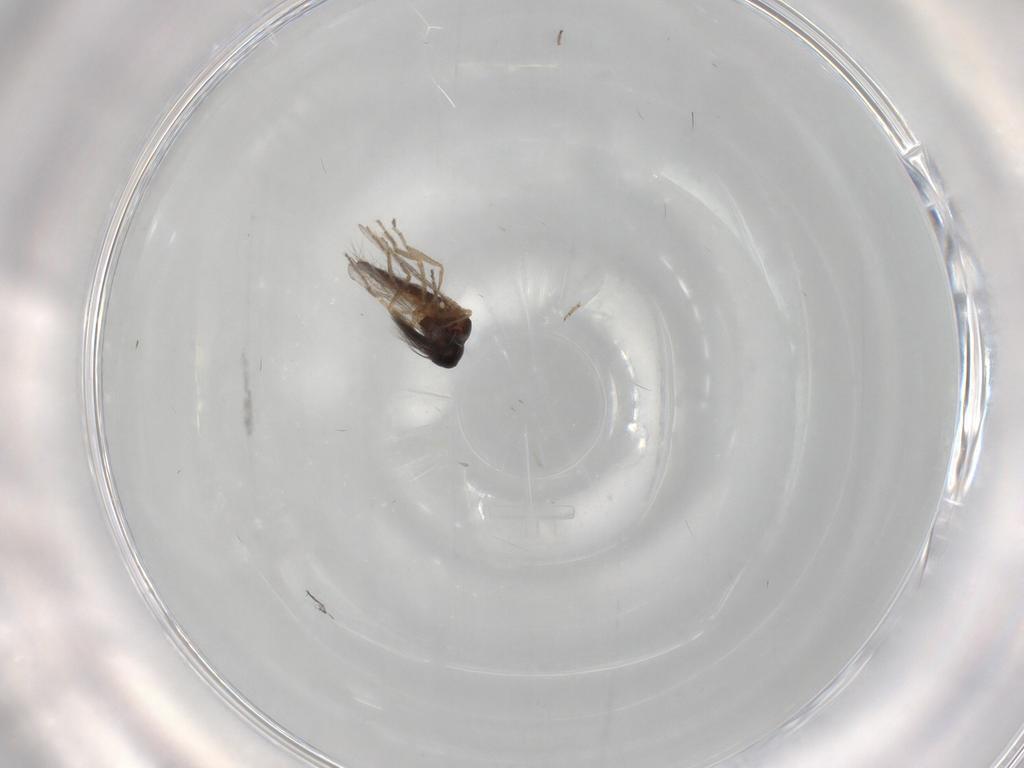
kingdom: Animalia
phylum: Arthropoda
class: Insecta
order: Diptera
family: Ceratopogonidae
